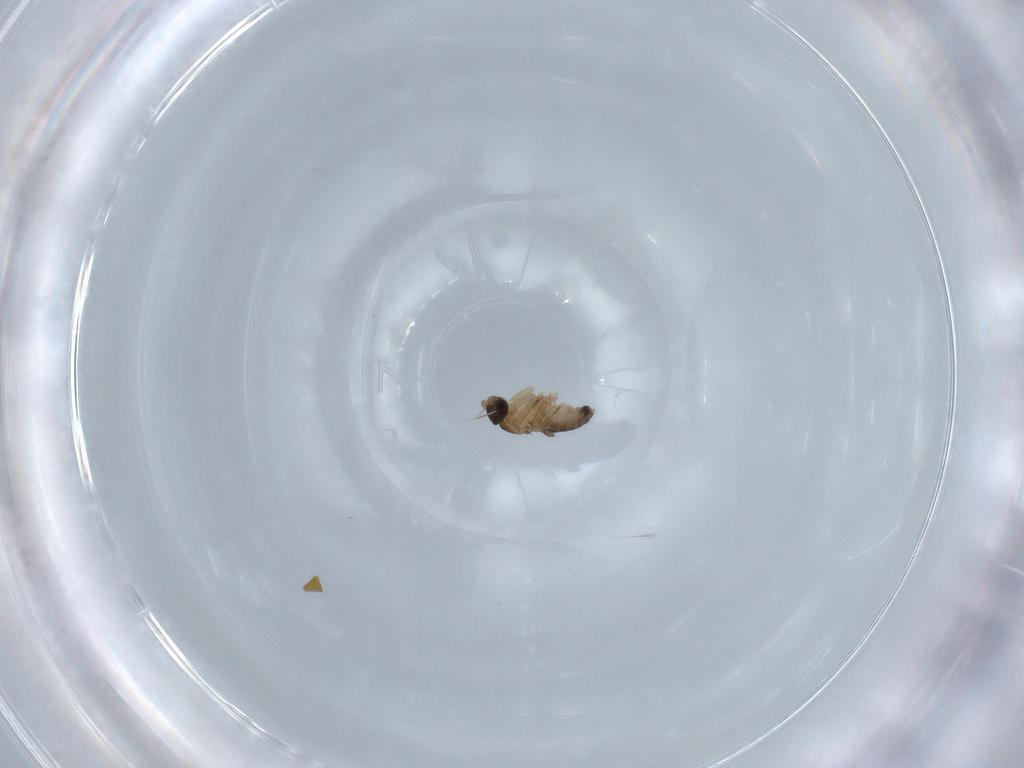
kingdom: Animalia
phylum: Arthropoda
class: Insecta
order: Diptera
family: Phoridae
